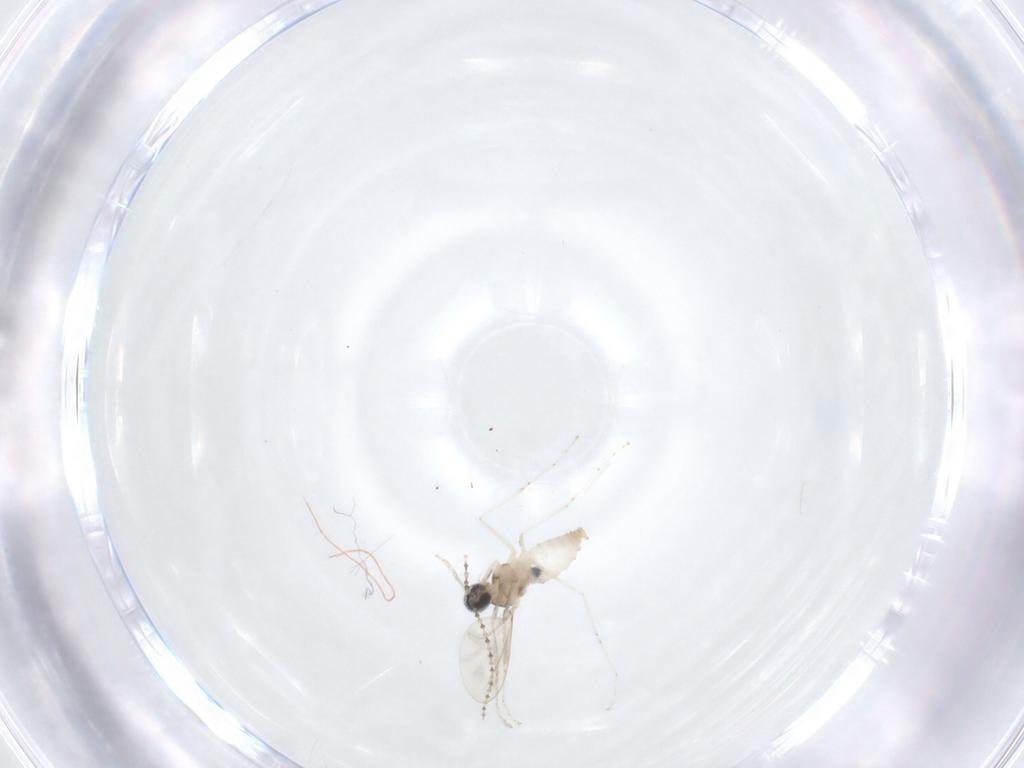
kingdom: Animalia
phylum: Arthropoda
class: Insecta
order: Diptera
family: Cecidomyiidae
